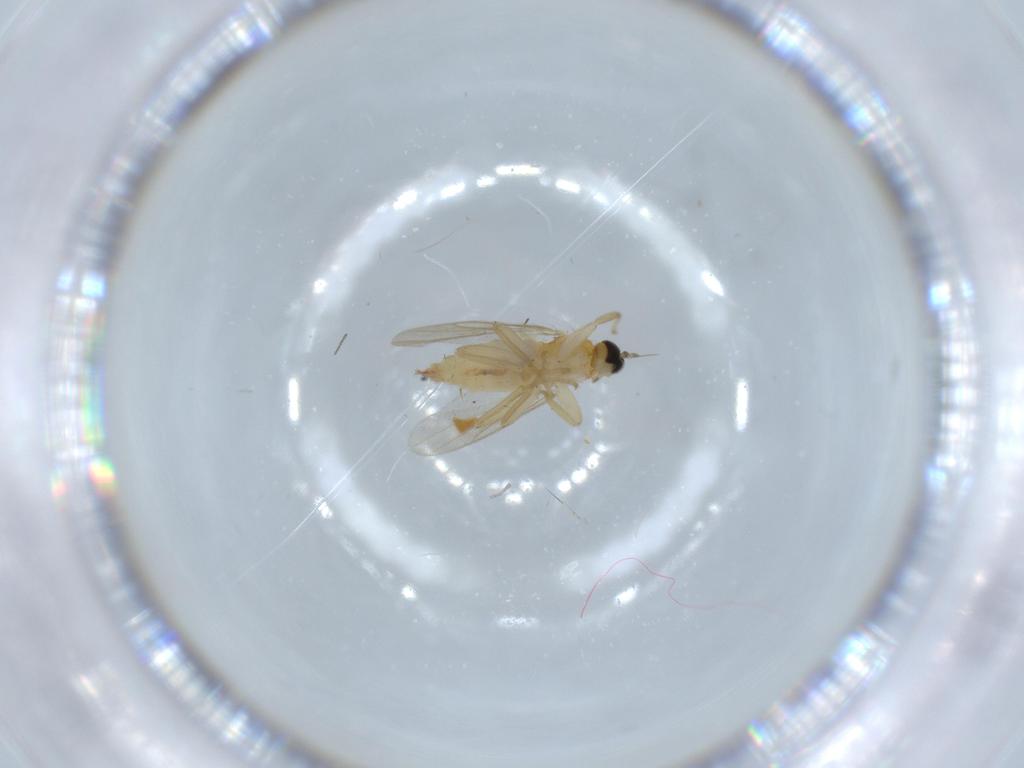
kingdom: Animalia
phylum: Arthropoda
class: Insecta
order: Diptera
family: Hybotidae
